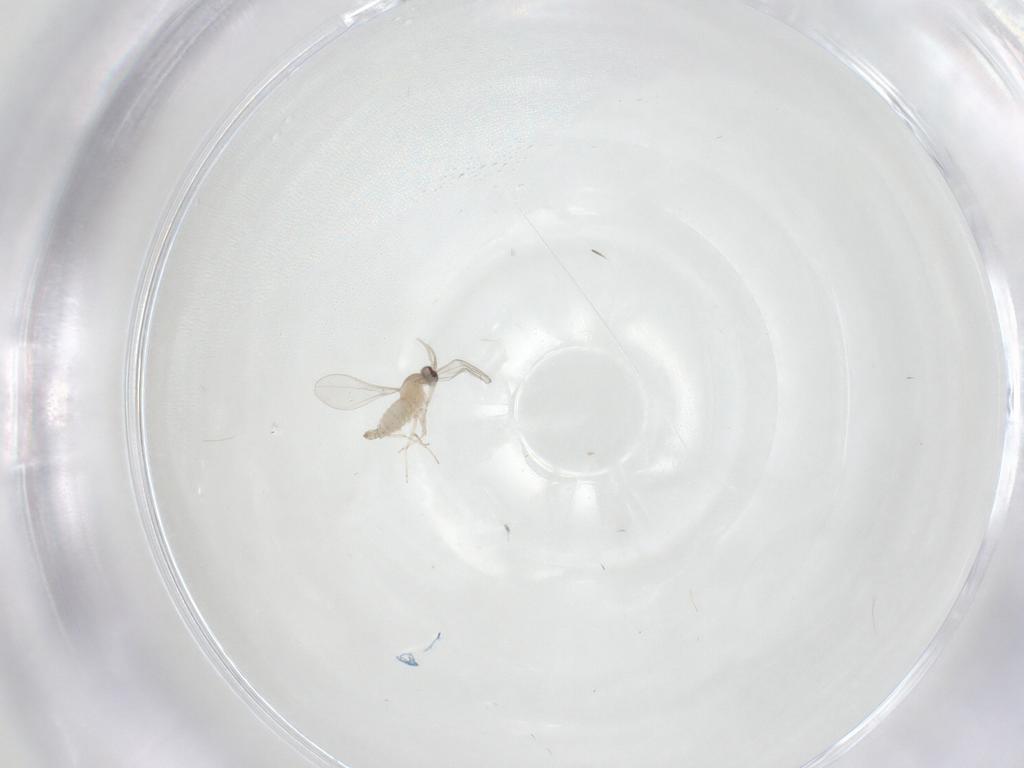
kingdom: Animalia
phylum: Arthropoda
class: Insecta
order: Diptera
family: Cecidomyiidae
